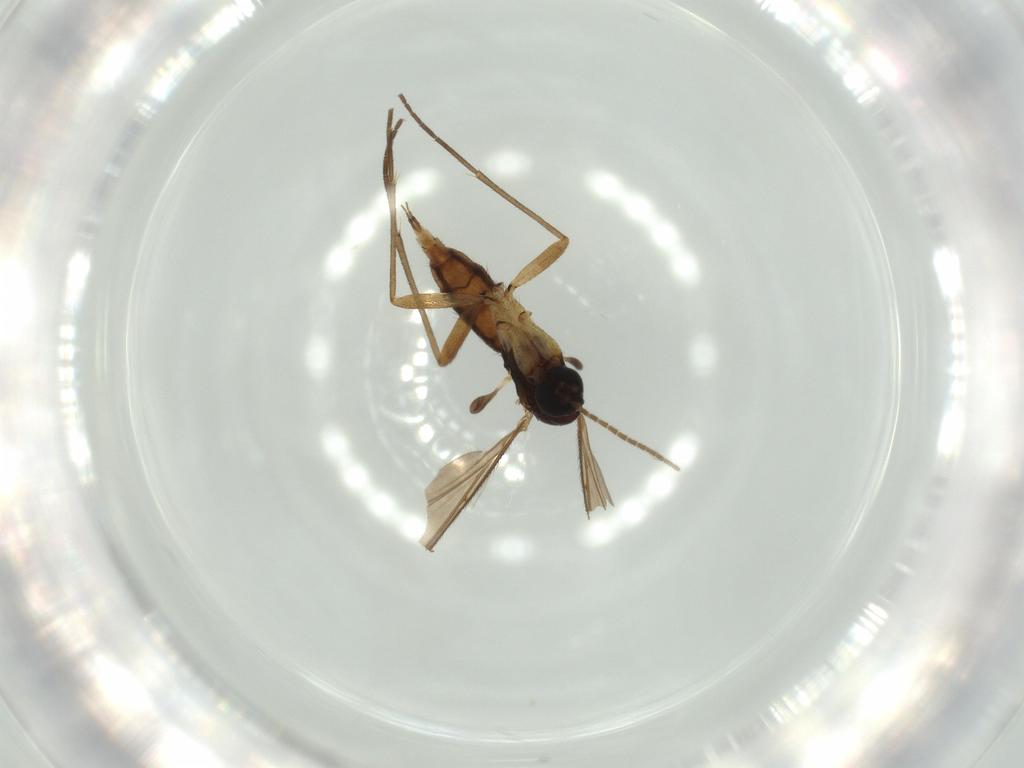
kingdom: Animalia
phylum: Arthropoda
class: Insecta
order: Diptera
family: Sciaridae
